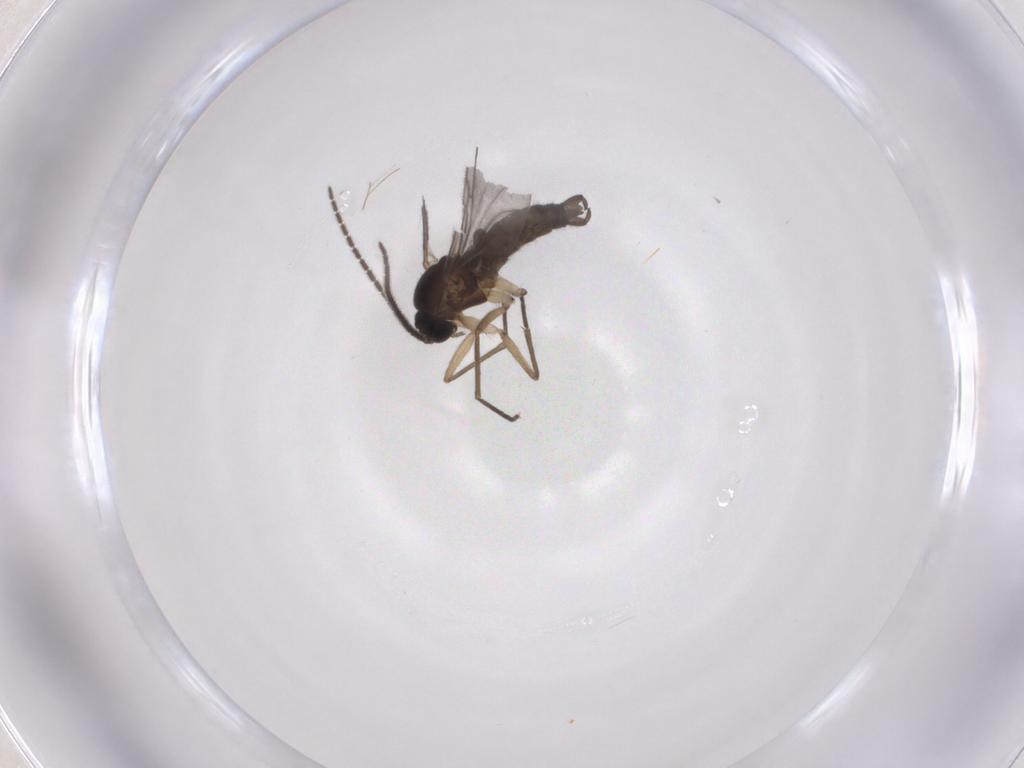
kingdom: Animalia
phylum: Arthropoda
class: Insecta
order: Diptera
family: Sciaridae
